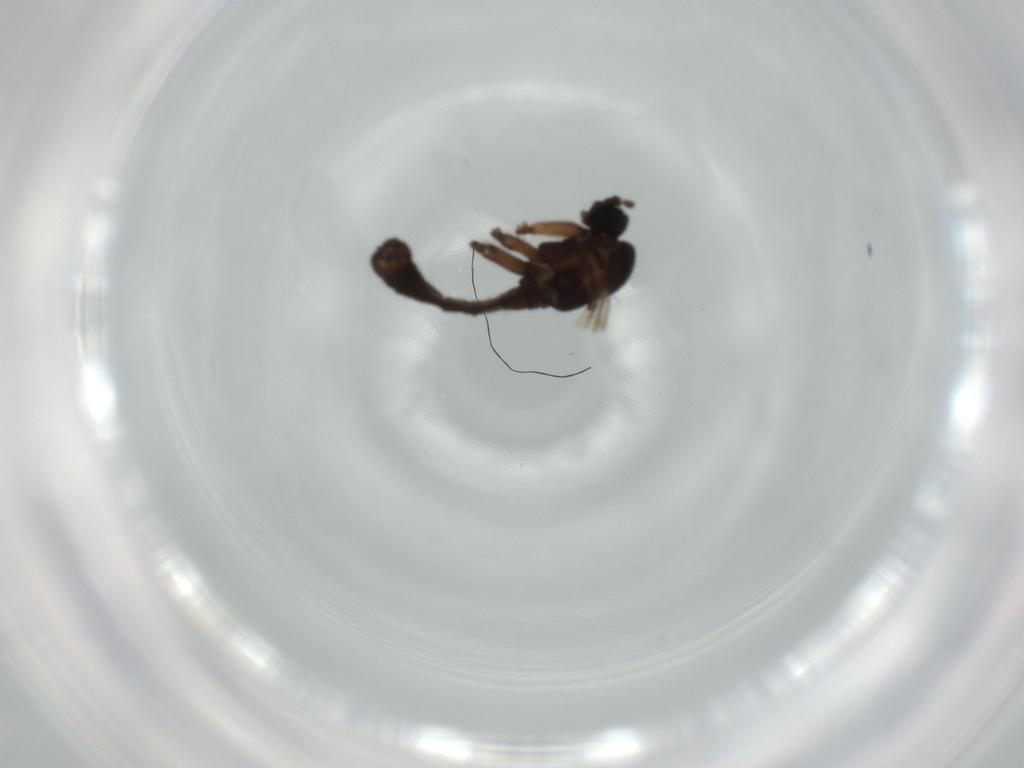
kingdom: Animalia
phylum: Arthropoda
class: Insecta
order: Diptera
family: Sciaridae
